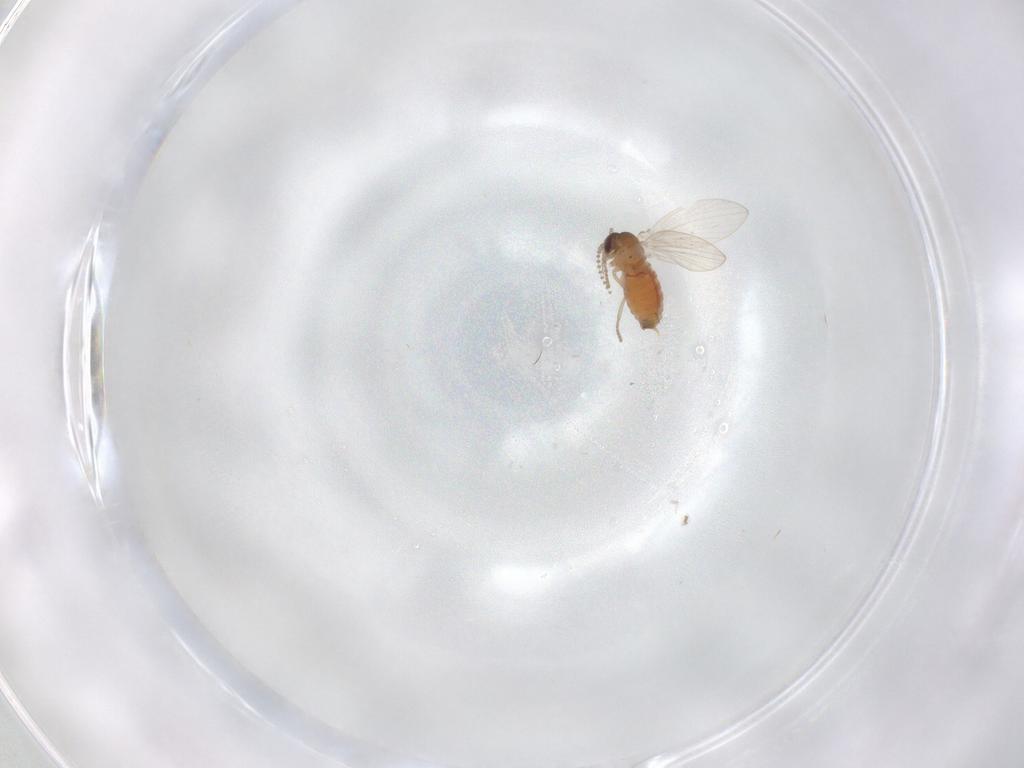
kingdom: Animalia
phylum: Arthropoda
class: Insecta
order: Diptera
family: Psychodidae
